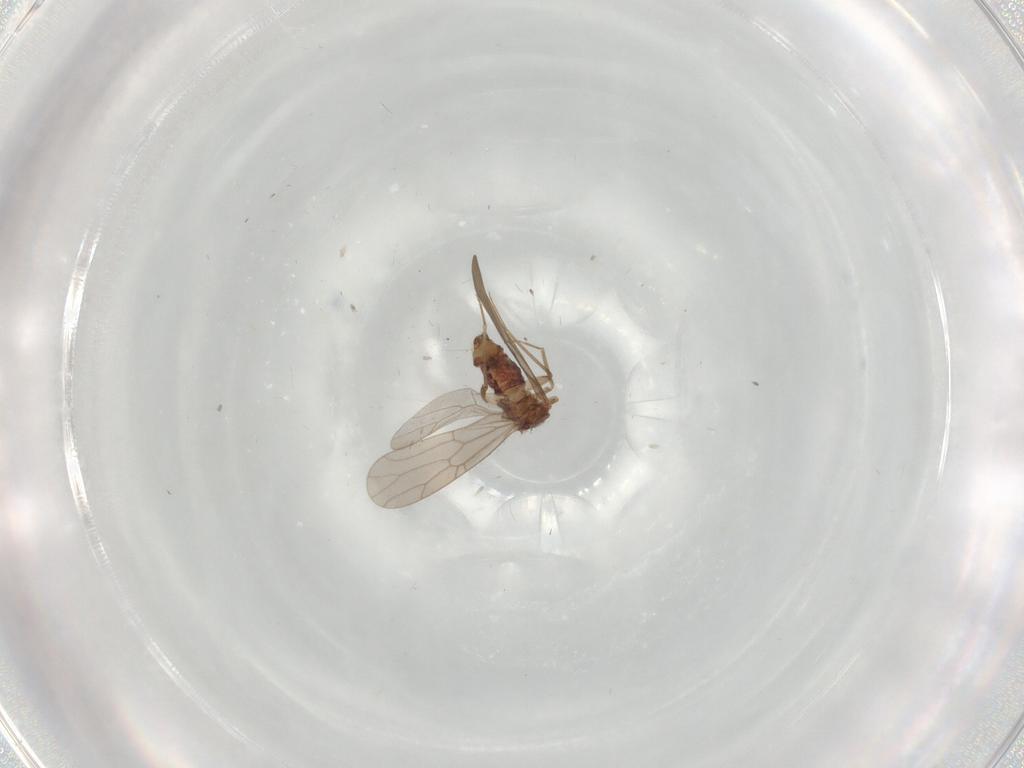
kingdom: Animalia
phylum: Arthropoda
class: Insecta
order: Psocodea
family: Lepidopsocidae
